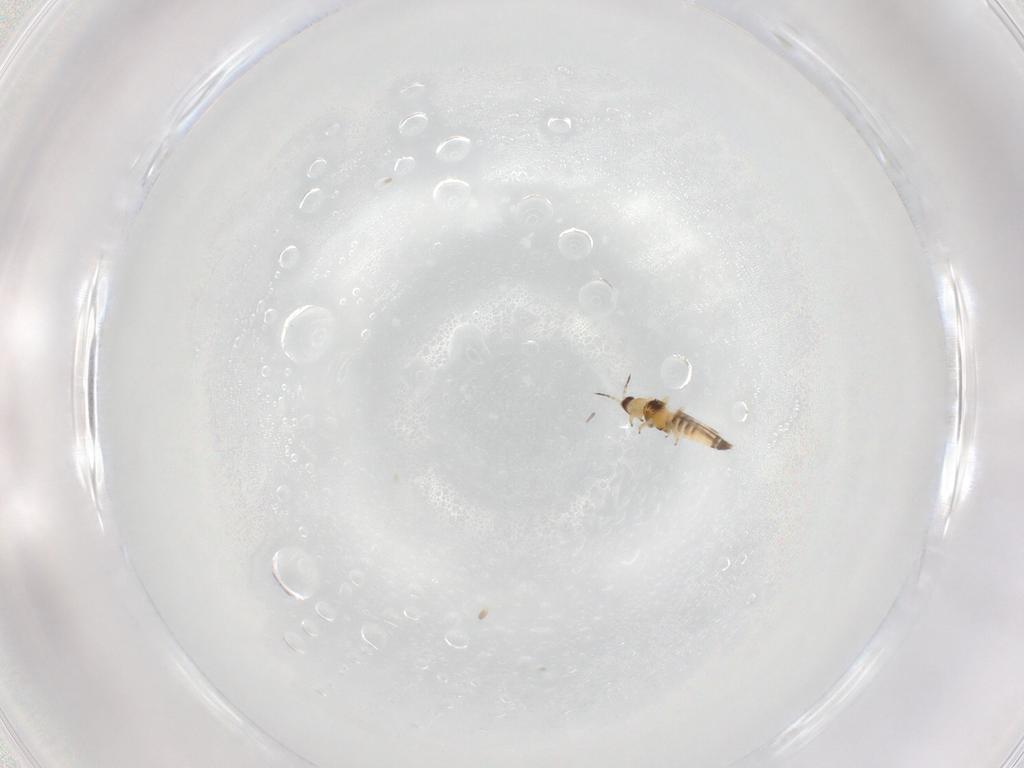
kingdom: Animalia
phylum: Arthropoda
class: Insecta
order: Thysanoptera
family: Thripidae
